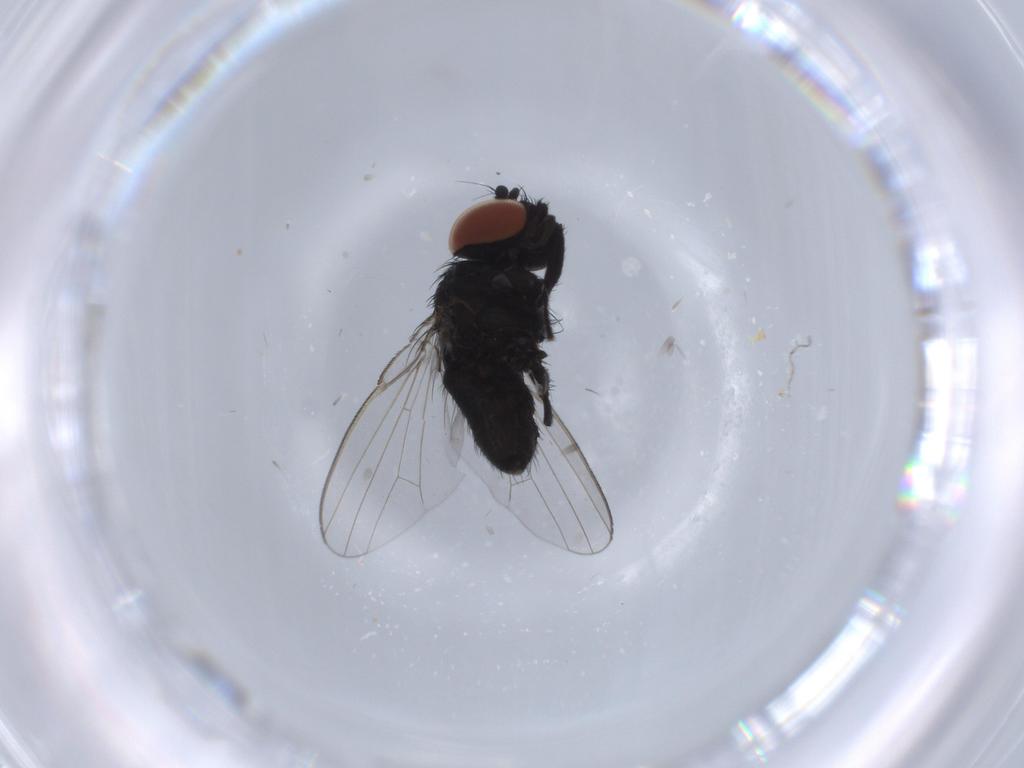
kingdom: Animalia
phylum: Arthropoda
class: Insecta
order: Diptera
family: Milichiidae
